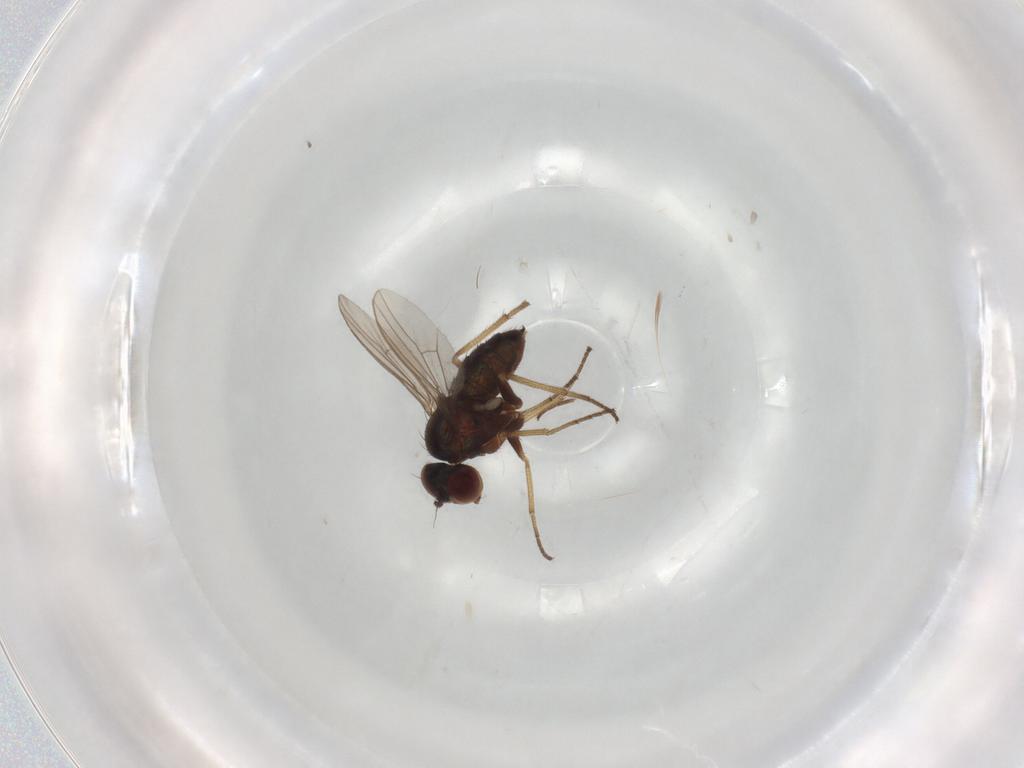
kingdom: Animalia
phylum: Arthropoda
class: Insecta
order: Diptera
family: Dolichopodidae
